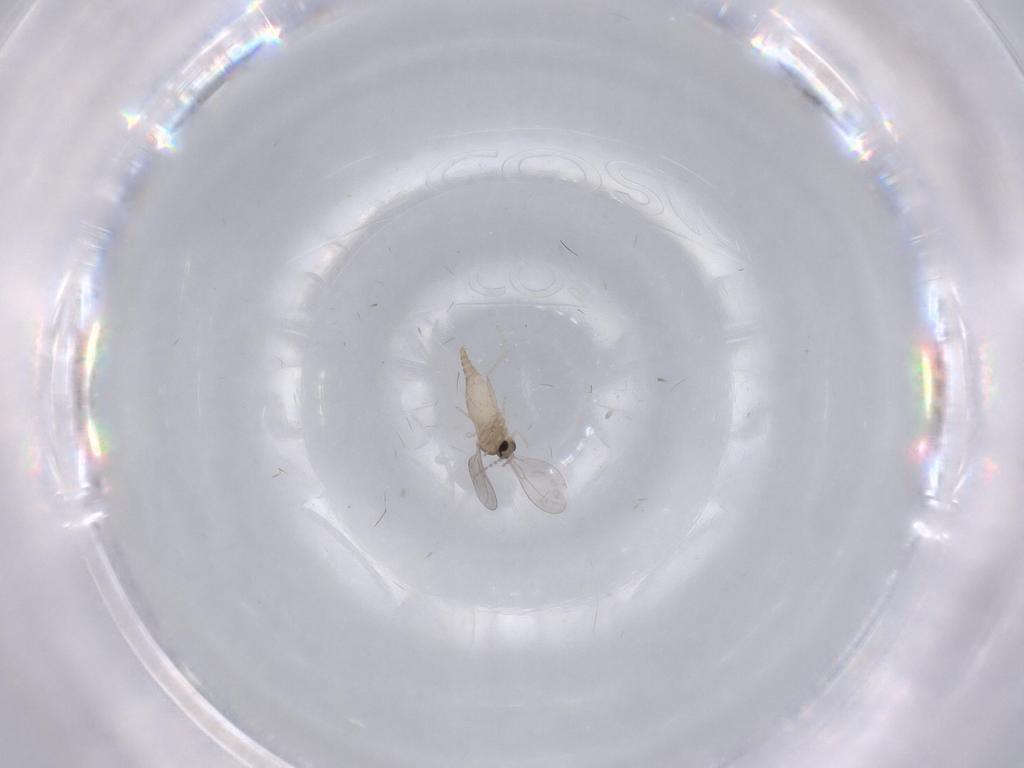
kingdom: Animalia
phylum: Arthropoda
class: Insecta
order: Diptera
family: Cecidomyiidae
